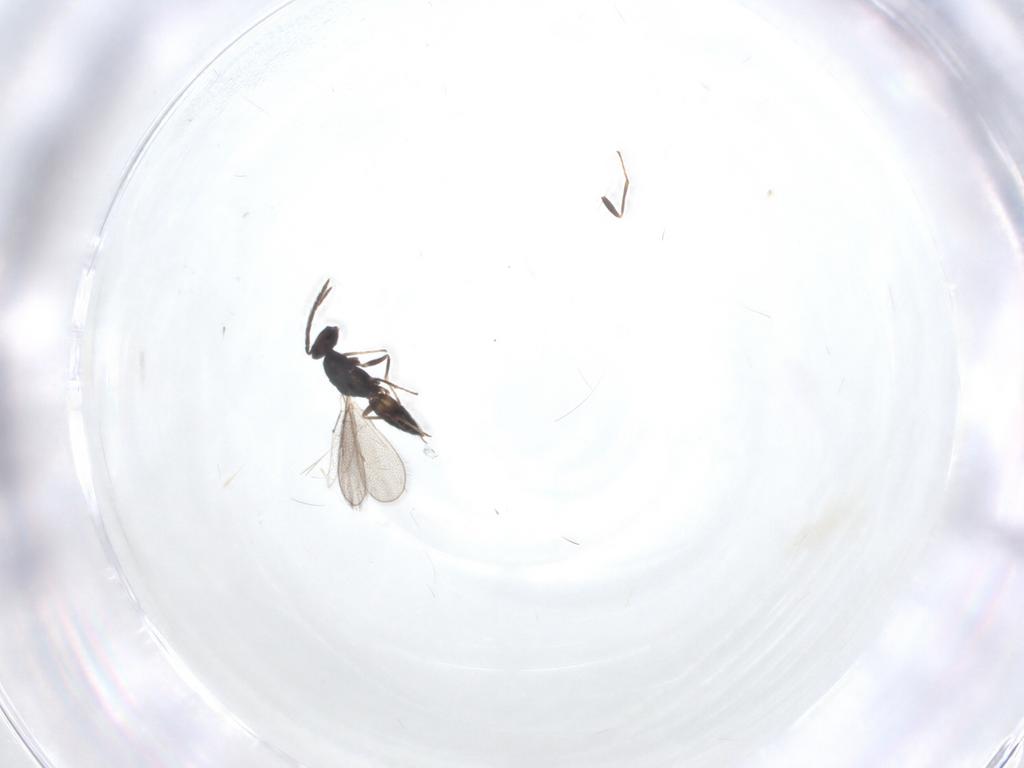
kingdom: Animalia
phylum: Arthropoda
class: Insecta
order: Hymenoptera
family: Eulophidae
